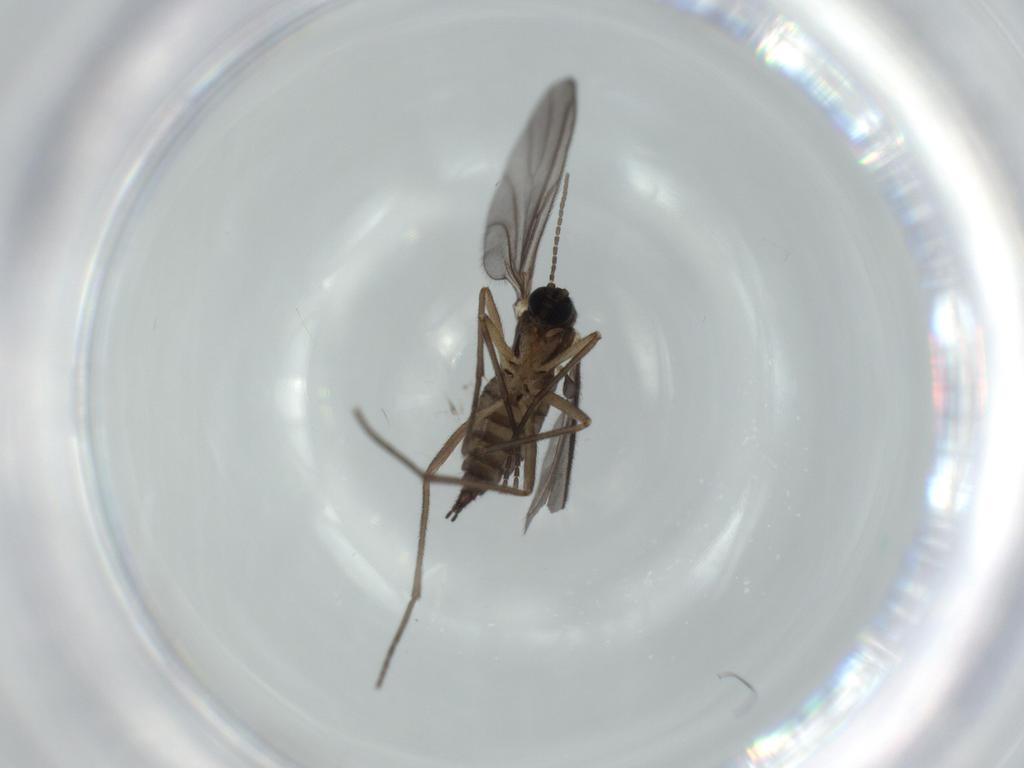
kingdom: Animalia
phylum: Arthropoda
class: Insecta
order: Diptera
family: Sciaridae
